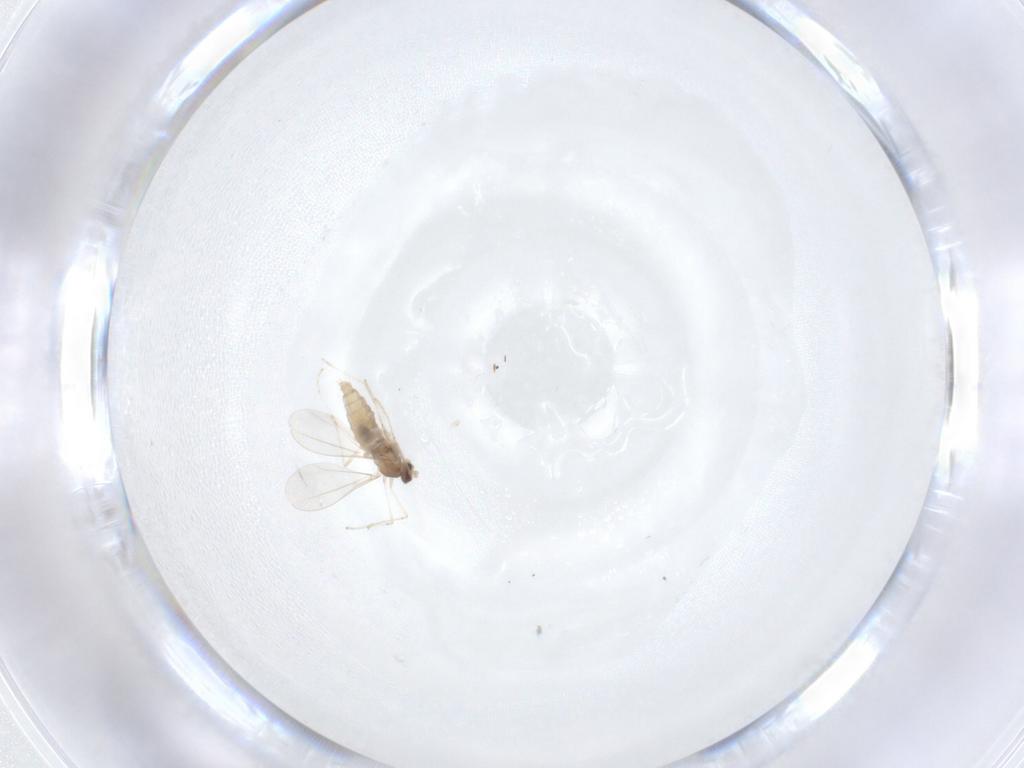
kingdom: Animalia
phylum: Arthropoda
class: Insecta
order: Diptera
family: Cecidomyiidae
